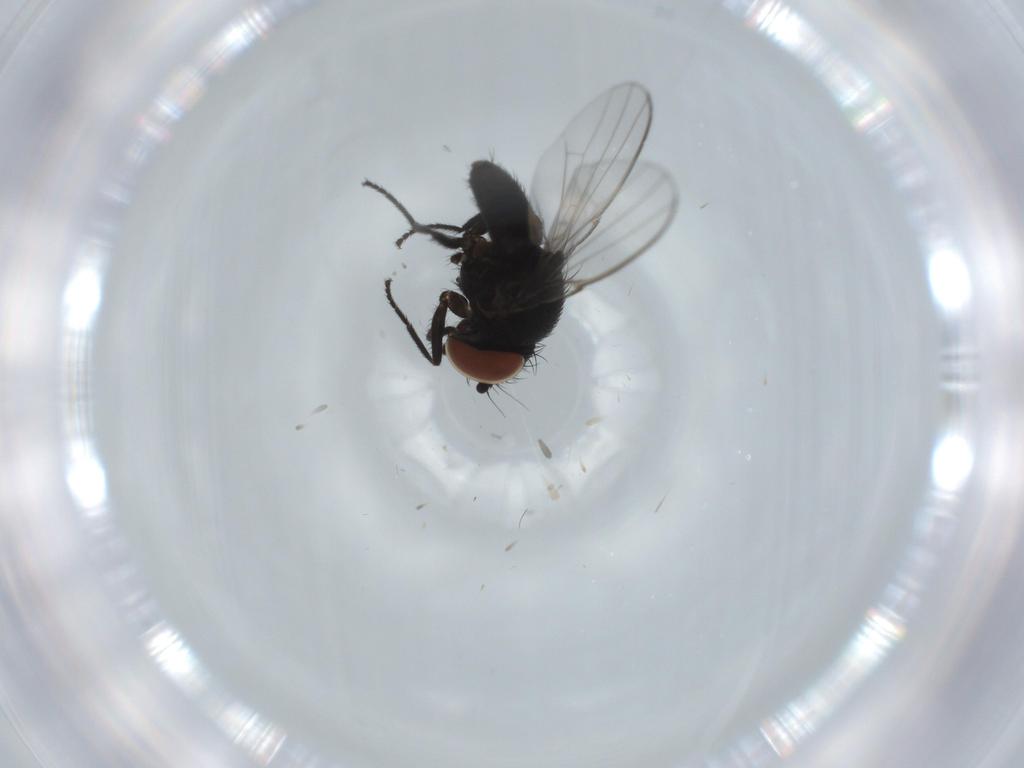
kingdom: Animalia
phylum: Arthropoda
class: Insecta
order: Diptera
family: Milichiidae
